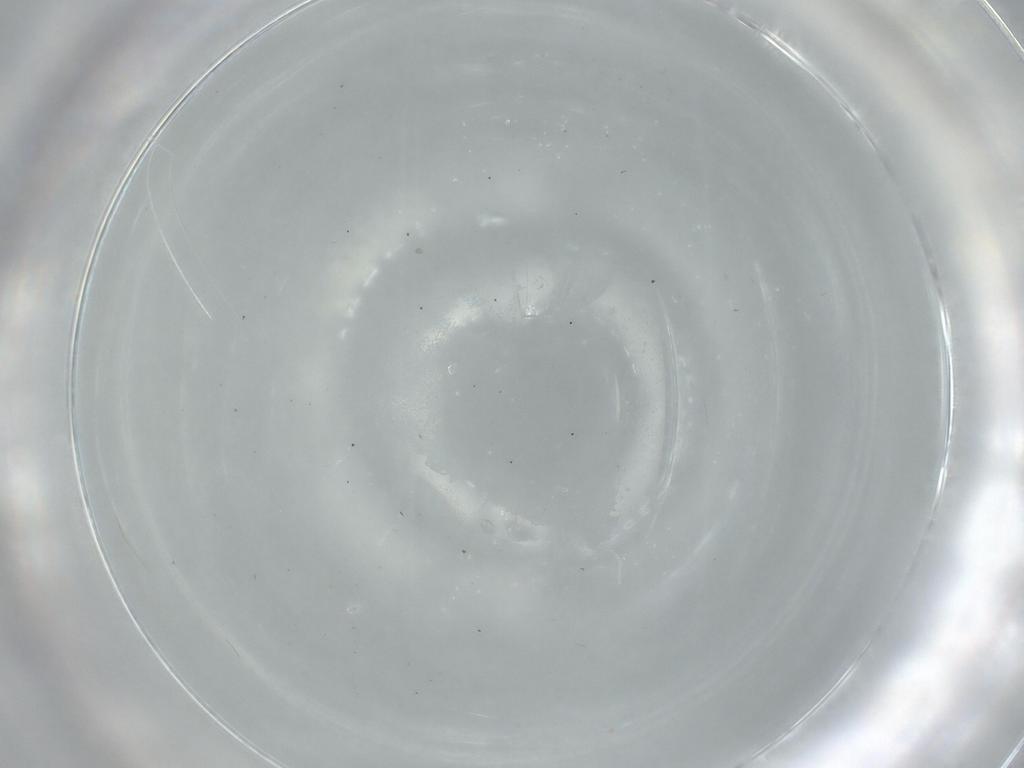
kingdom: Animalia
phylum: Arthropoda
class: Insecta
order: Diptera
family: Cecidomyiidae
